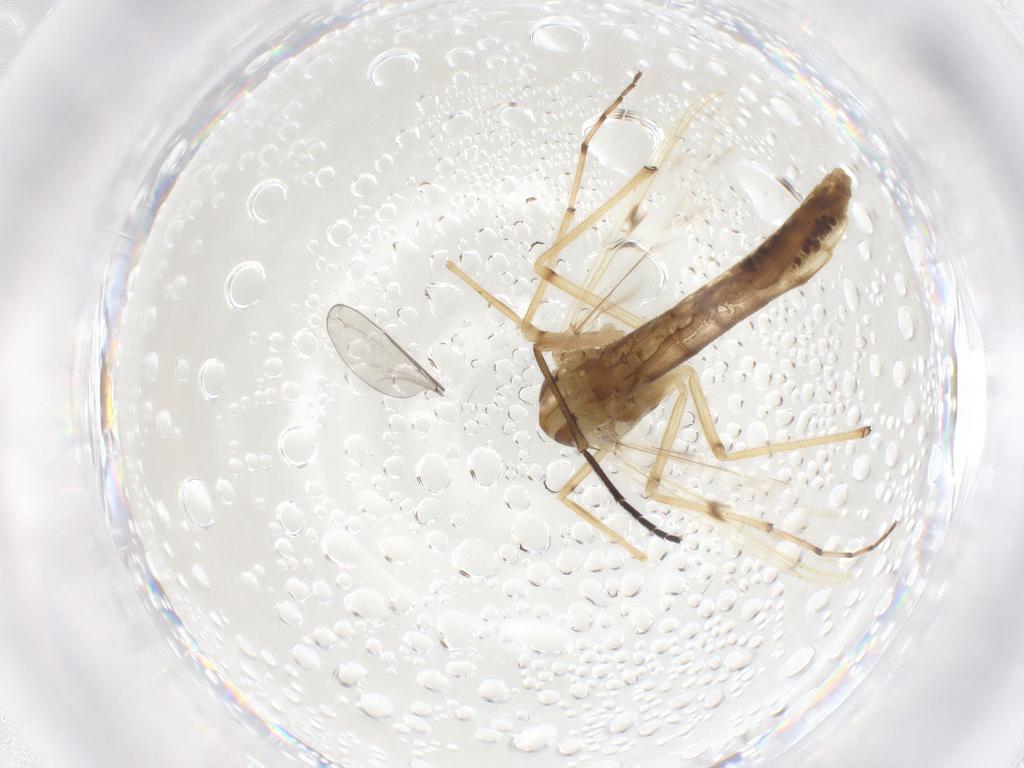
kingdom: Animalia
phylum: Arthropoda
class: Insecta
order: Diptera
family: Chironomidae
